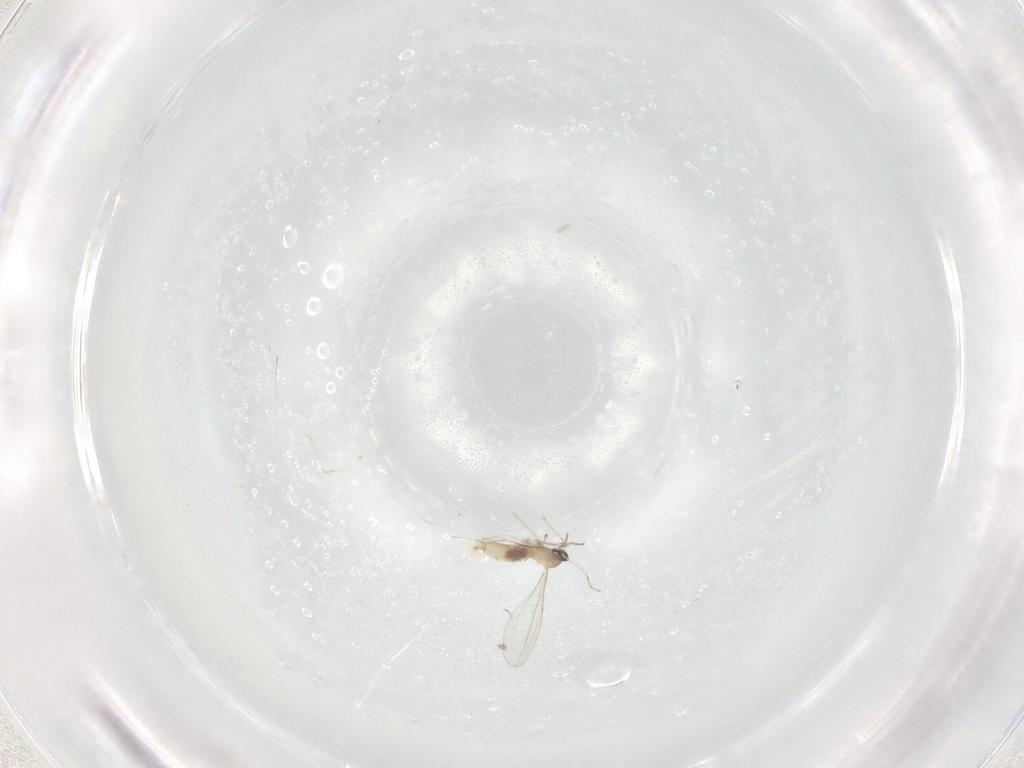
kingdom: Animalia
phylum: Arthropoda
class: Insecta
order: Diptera
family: Cecidomyiidae
